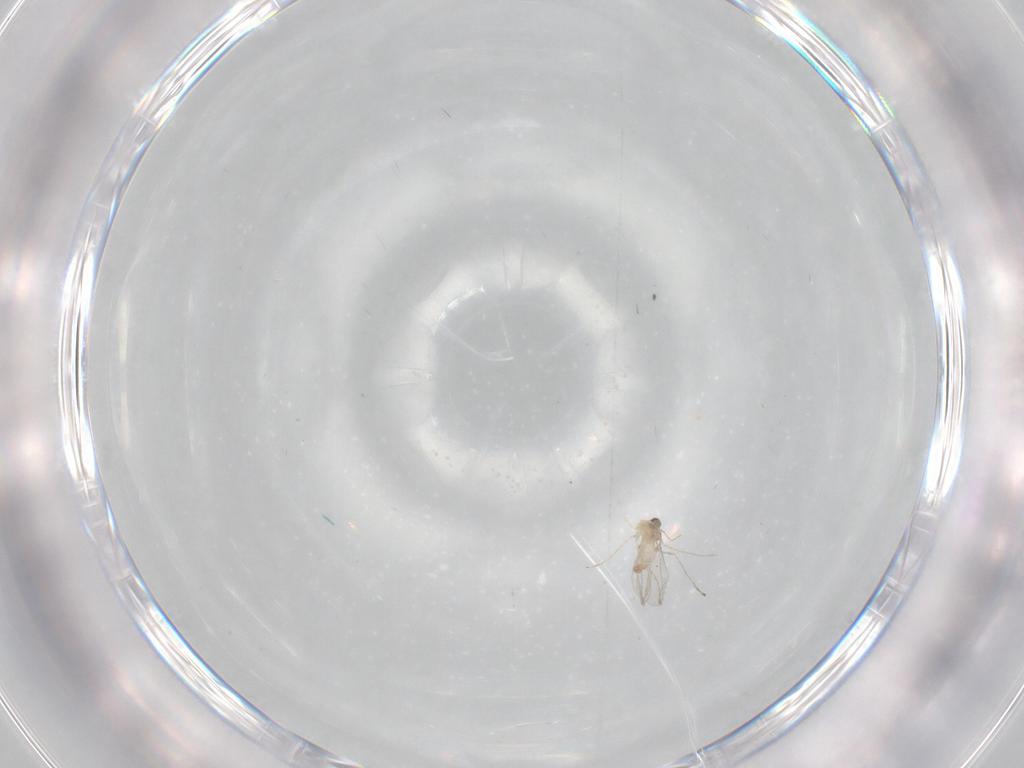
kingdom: Animalia
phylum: Arthropoda
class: Insecta
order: Diptera
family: Cecidomyiidae
